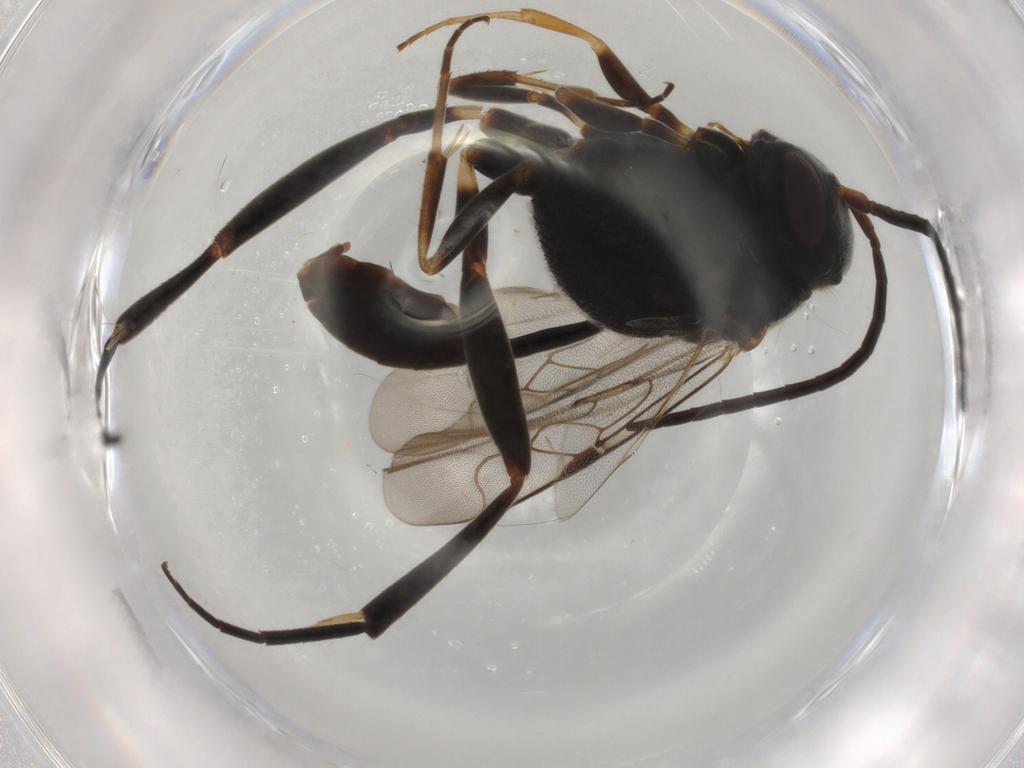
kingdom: Animalia
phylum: Arthropoda
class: Insecta
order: Hymenoptera
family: Evaniidae
